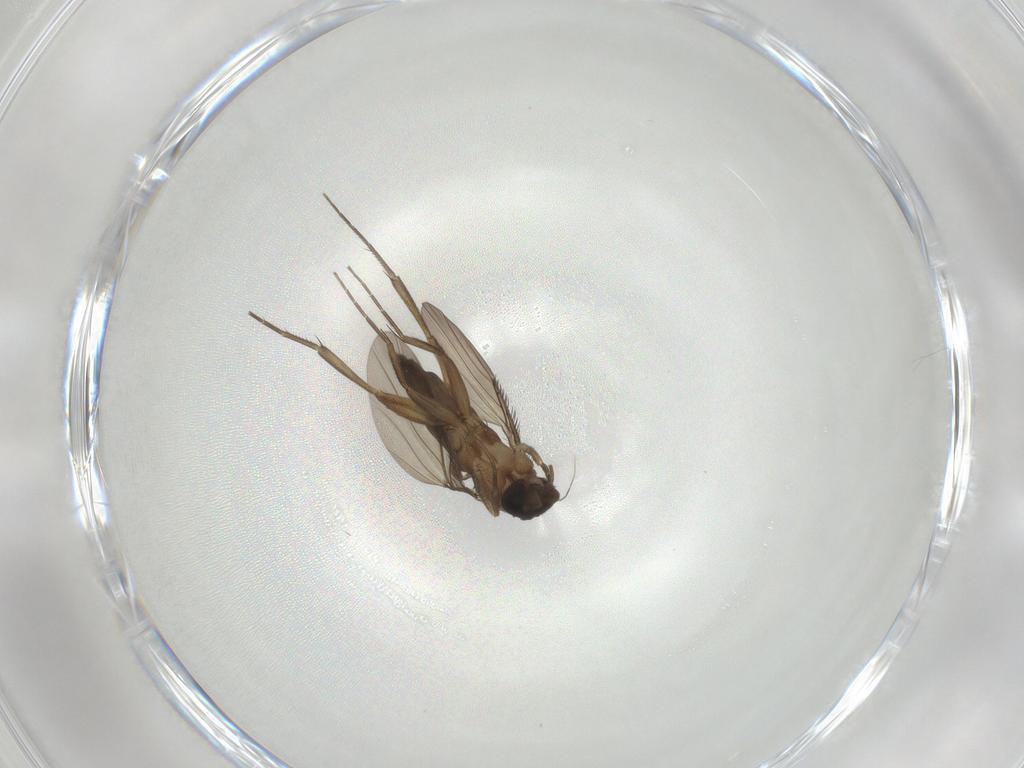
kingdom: Animalia
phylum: Arthropoda
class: Insecta
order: Diptera
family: Phoridae
